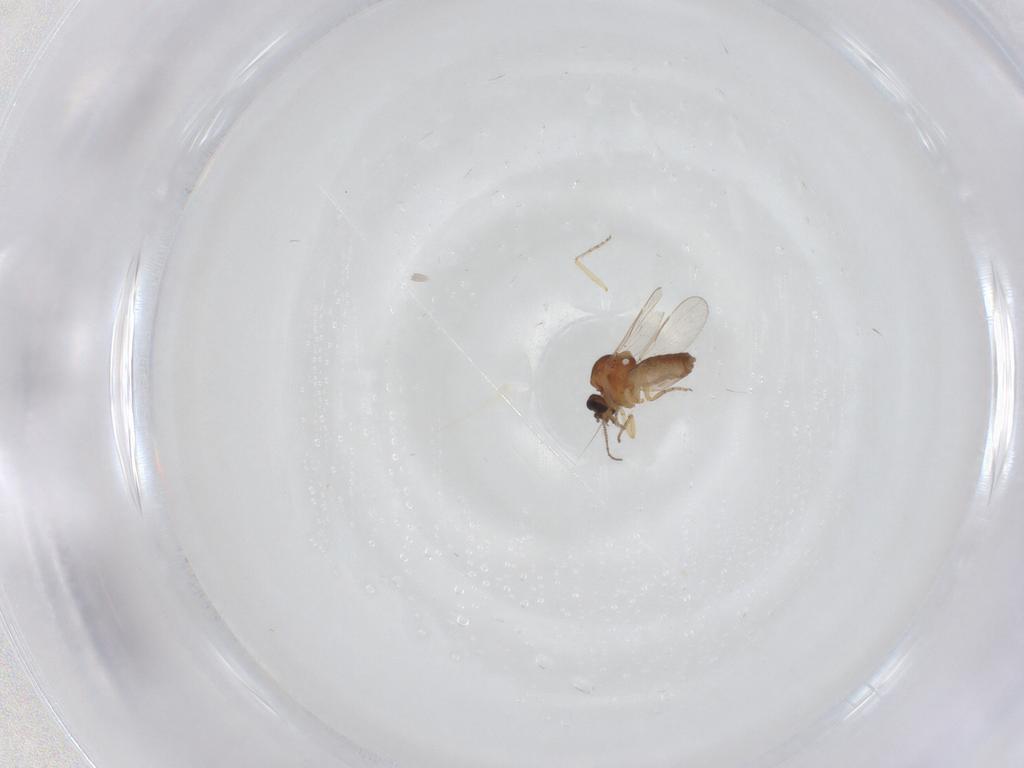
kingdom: Animalia
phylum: Arthropoda
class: Insecta
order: Diptera
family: Ceratopogonidae
